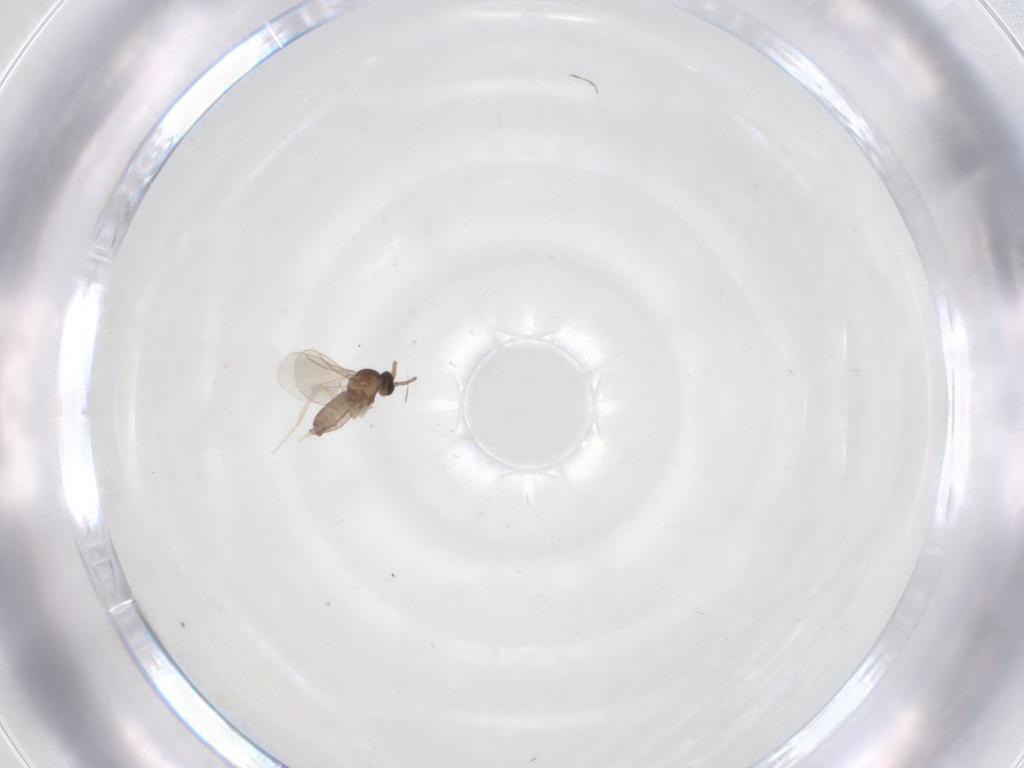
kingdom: Animalia
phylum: Arthropoda
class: Insecta
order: Diptera
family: Cecidomyiidae
